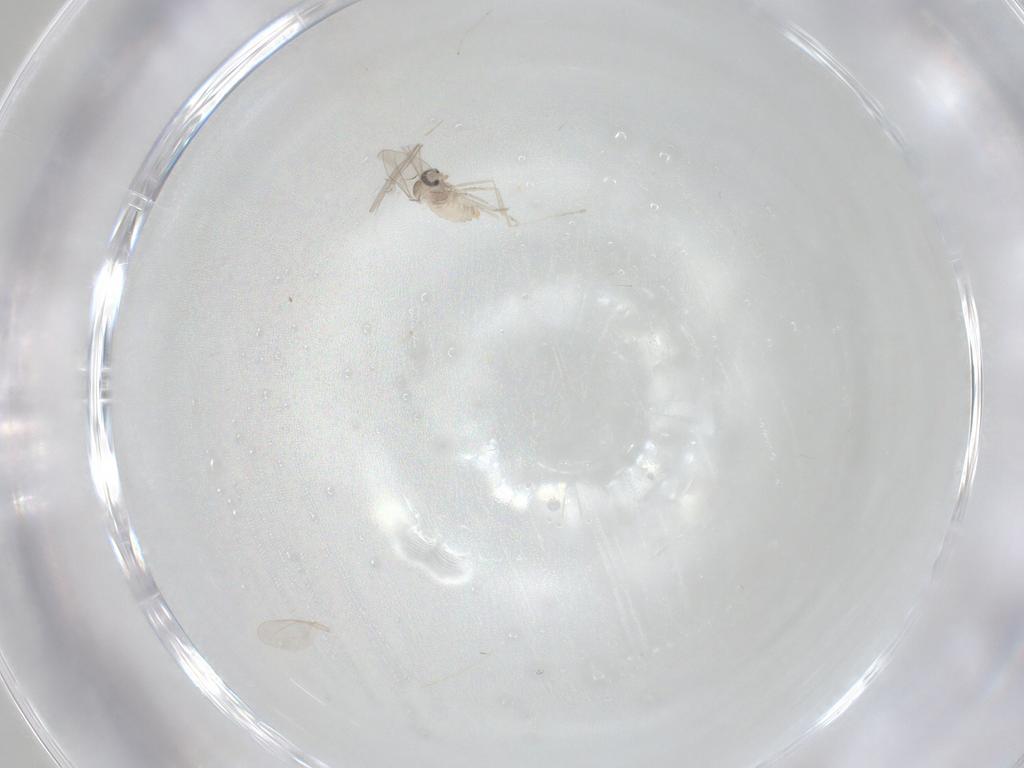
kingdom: Animalia
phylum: Arthropoda
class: Insecta
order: Diptera
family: Cecidomyiidae
